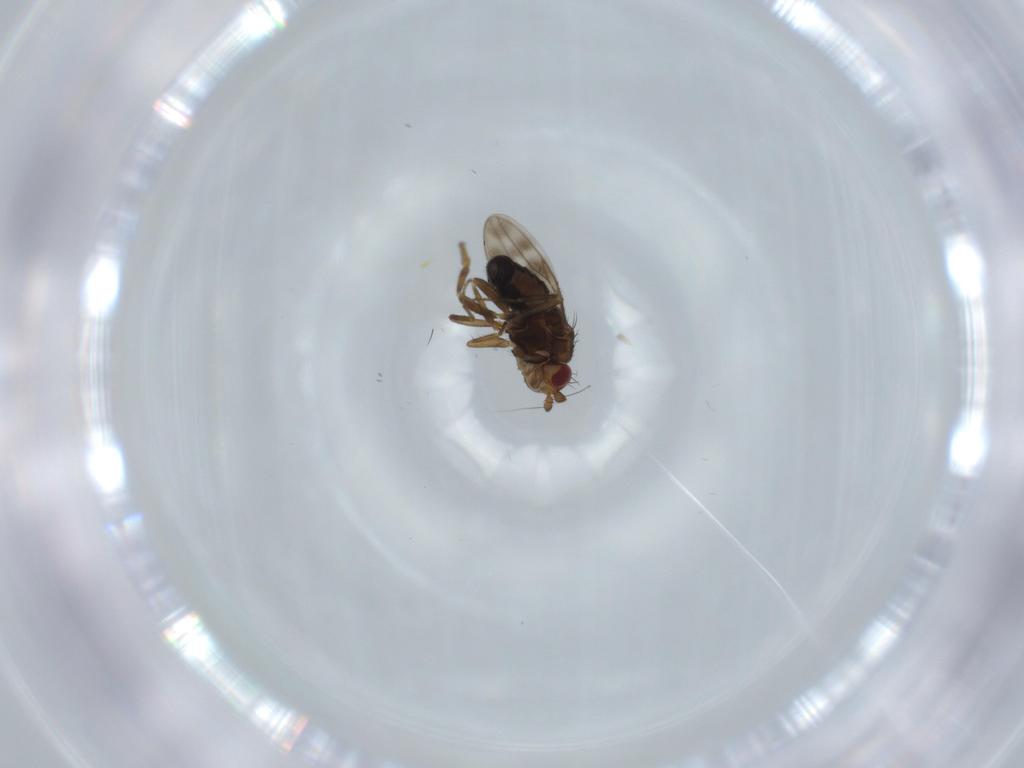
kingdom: Animalia
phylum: Arthropoda
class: Insecta
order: Diptera
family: Sphaeroceridae
